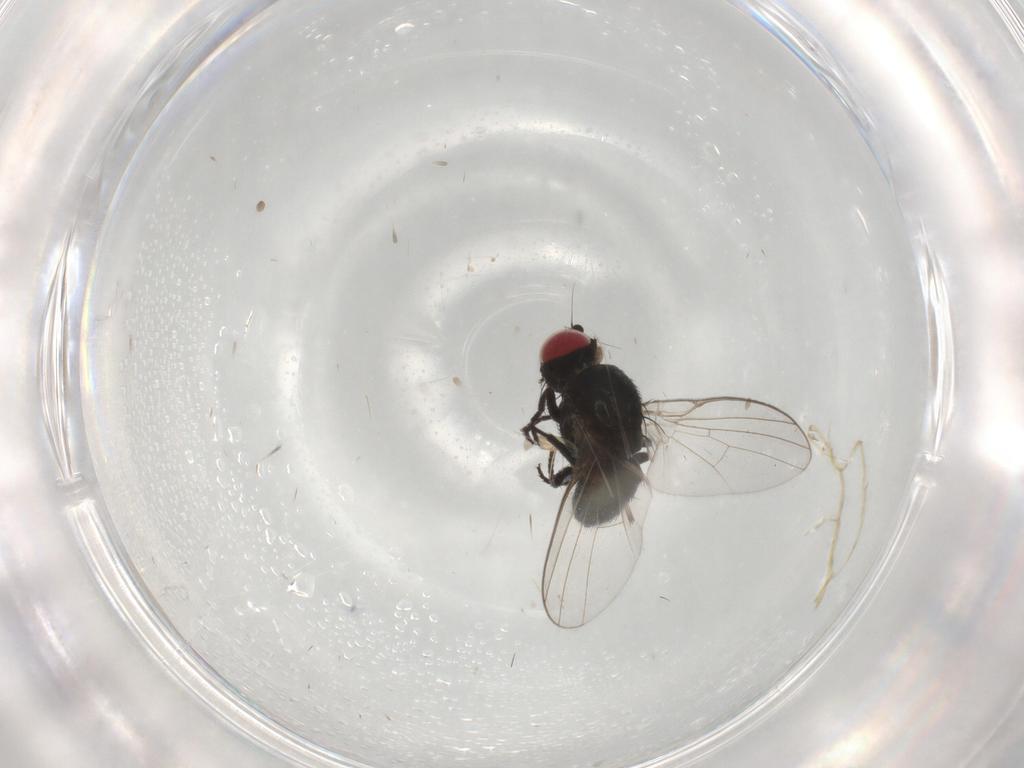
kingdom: Animalia
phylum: Arthropoda
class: Insecta
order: Diptera
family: Agromyzidae
